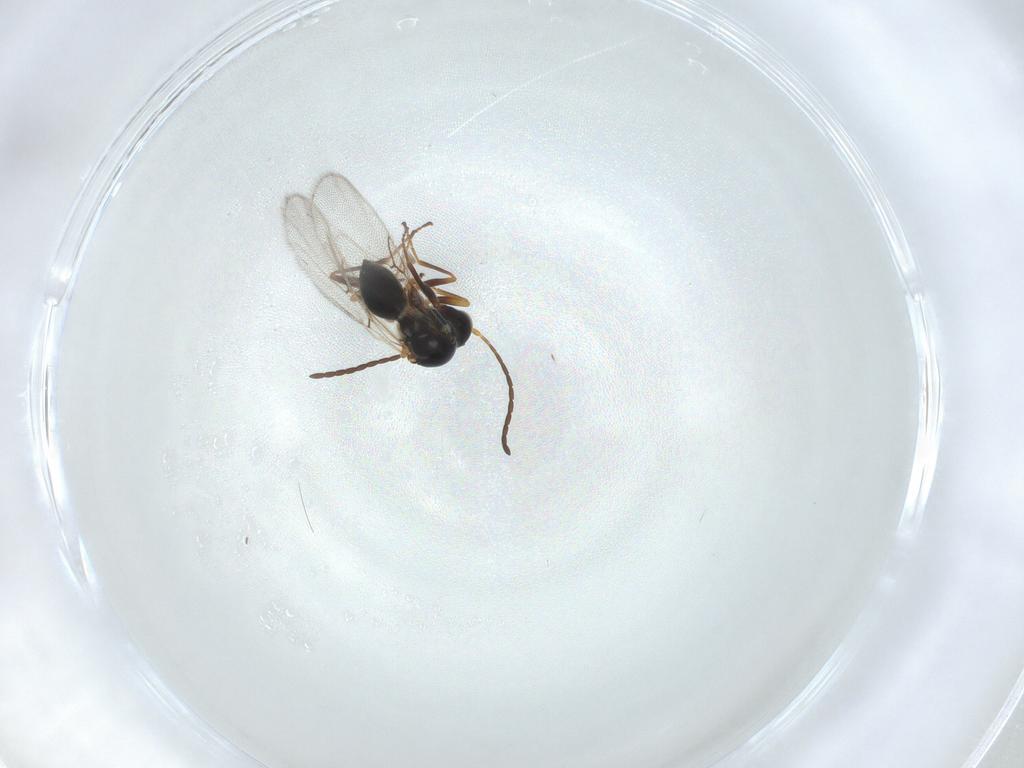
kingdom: Animalia
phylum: Arthropoda
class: Insecta
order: Hymenoptera
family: Figitidae
